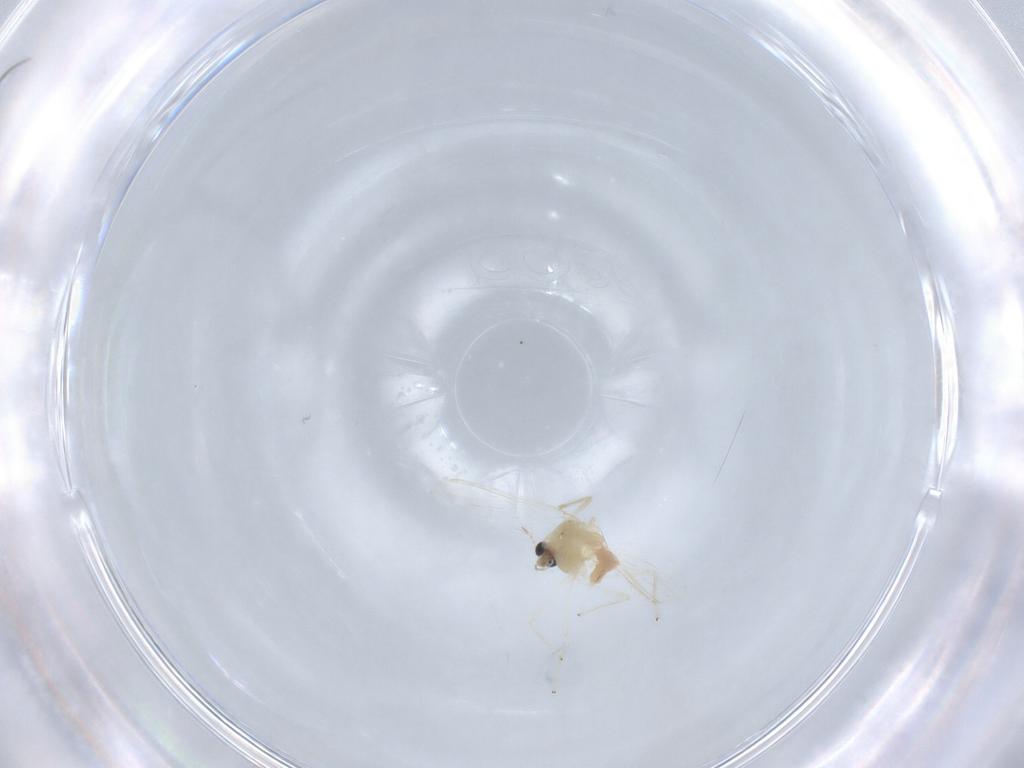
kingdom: Animalia
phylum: Arthropoda
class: Insecta
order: Diptera
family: Chironomidae
